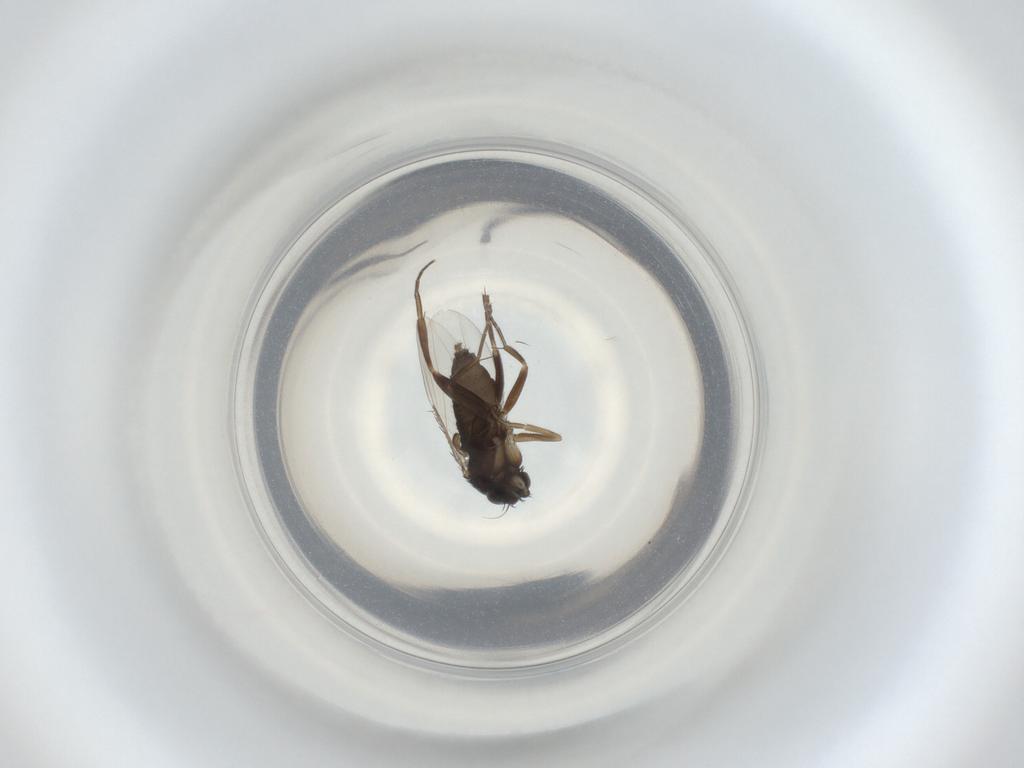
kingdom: Animalia
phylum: Arthropoda
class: Insecta
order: Diptera
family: Phoridae
